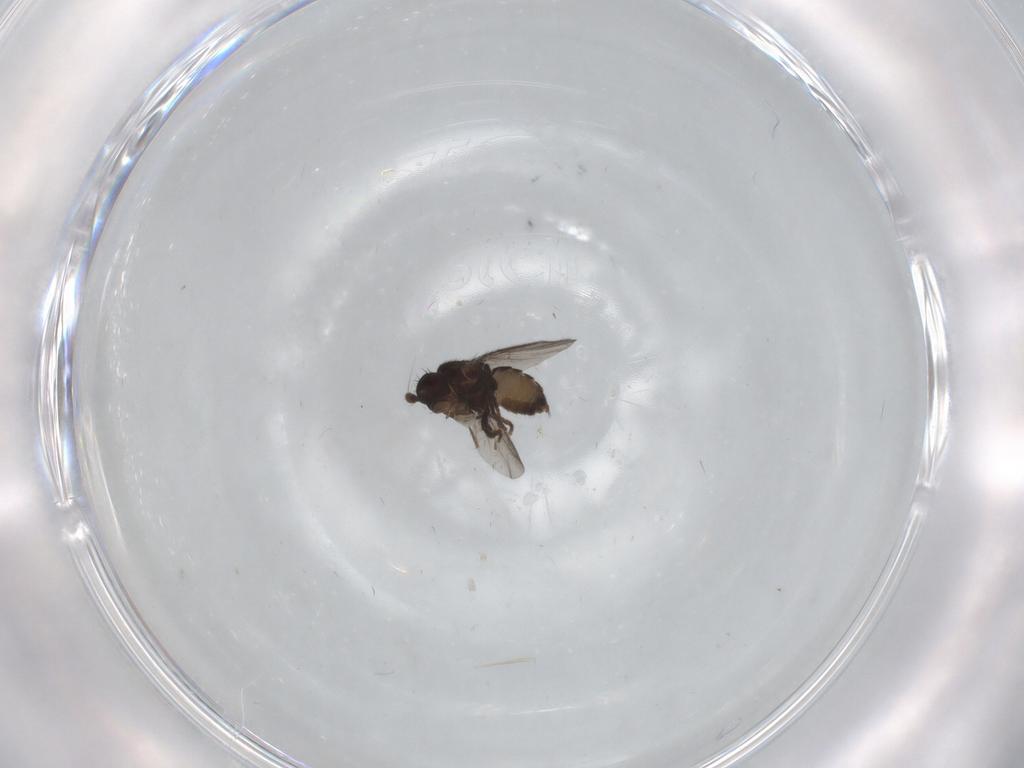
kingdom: Animalia
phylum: Arthropoda
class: Insecta
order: Diptera
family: Sphaeroceridae
